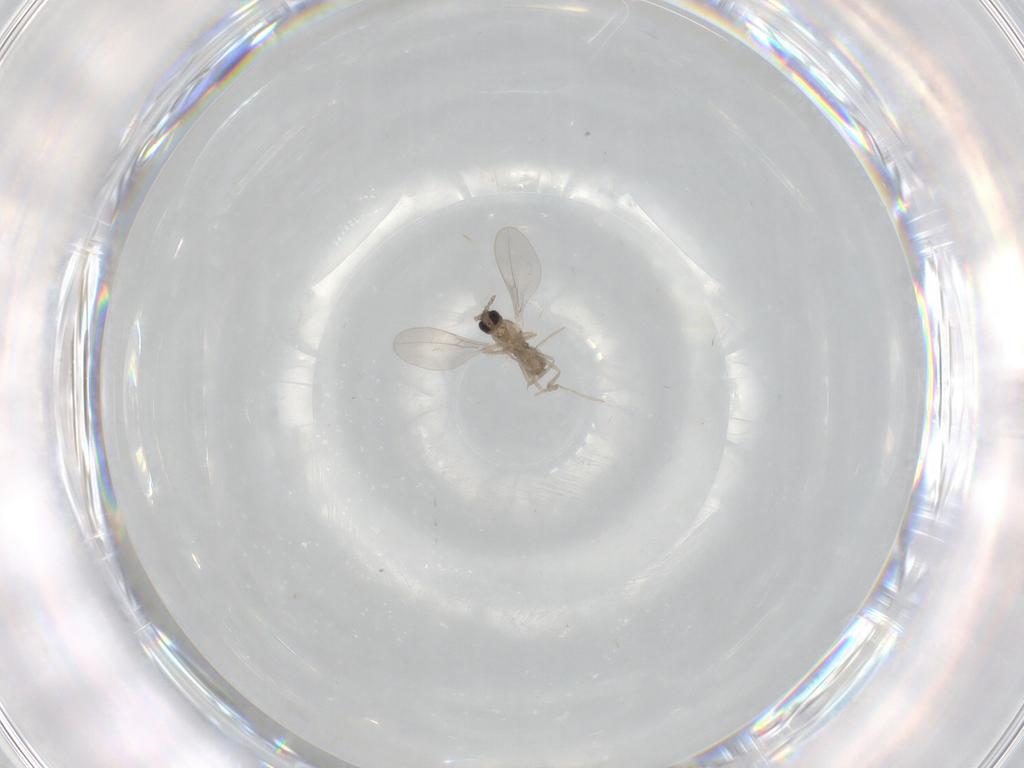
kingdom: Animalia
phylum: Arthropoda
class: Insecta
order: Diptera
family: Cecidomyiidae
